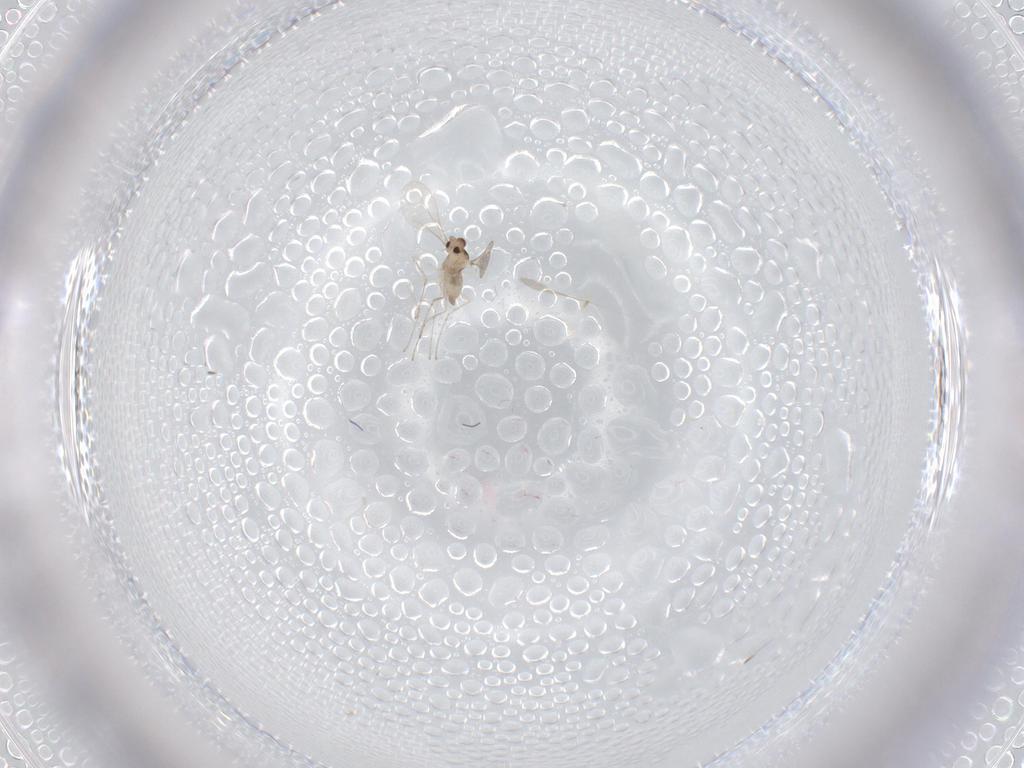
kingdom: Animalia
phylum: Arthropoda
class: Insecta
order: Diptera
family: Cecidomyiidae
